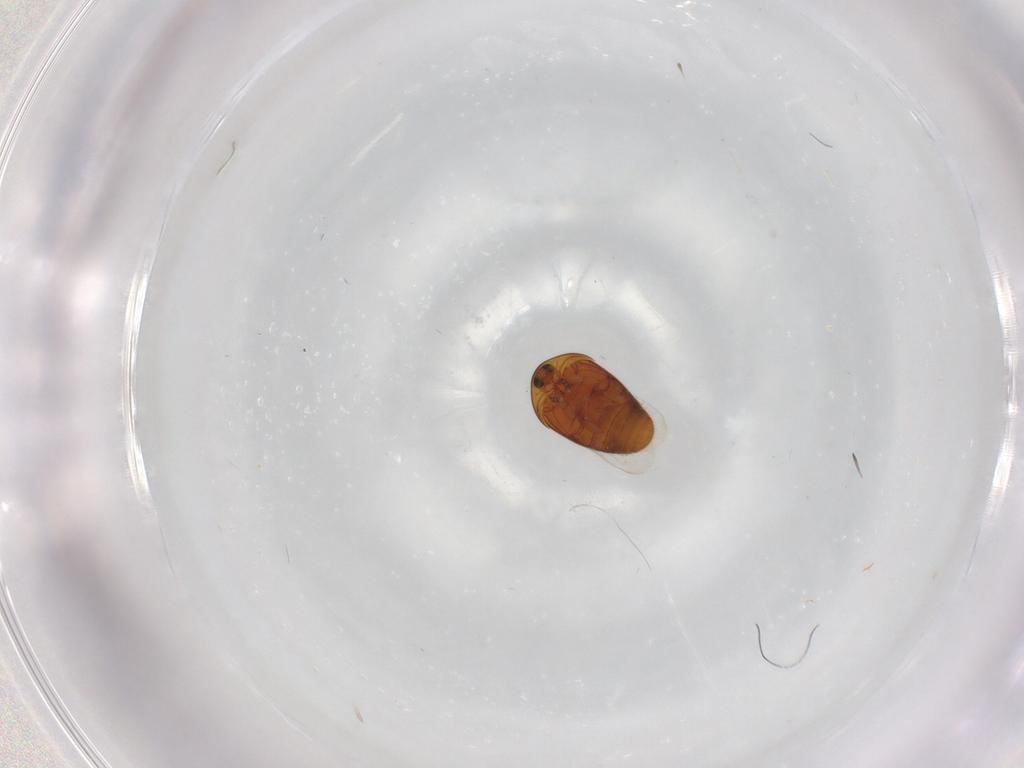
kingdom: Animalia
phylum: Arthropoda
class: Insecta
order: Coleoptera
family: Corylophidae
